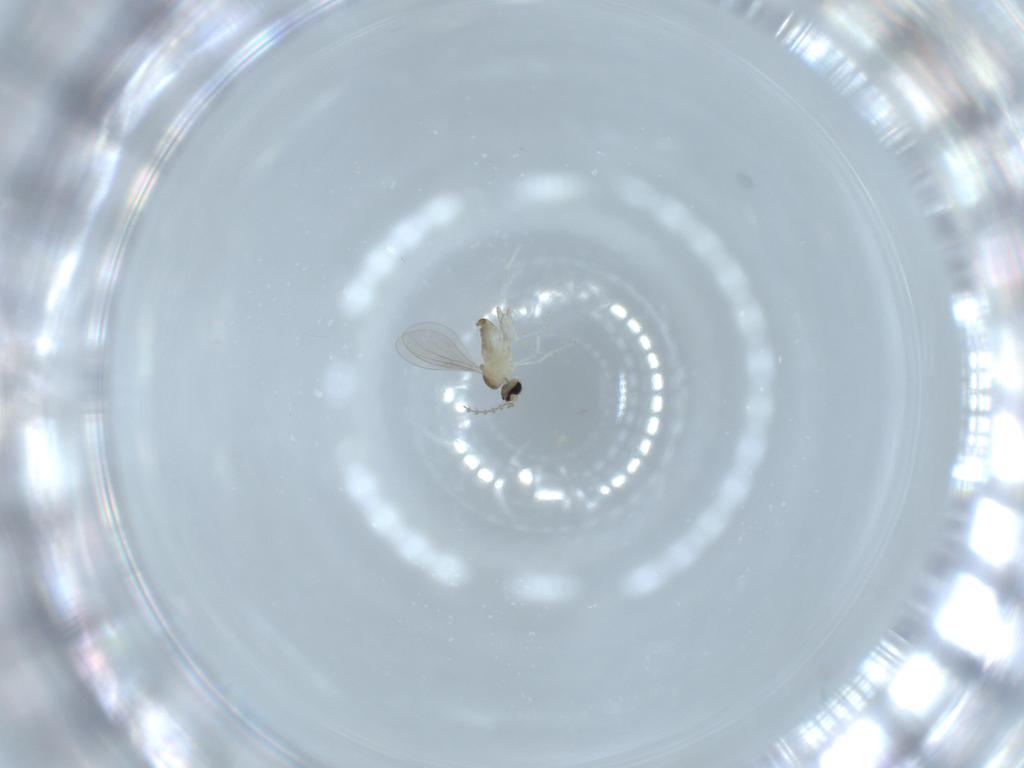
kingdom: Animalia
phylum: Arthropoda
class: Insecta
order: Diptera
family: Cecidomyiidae
